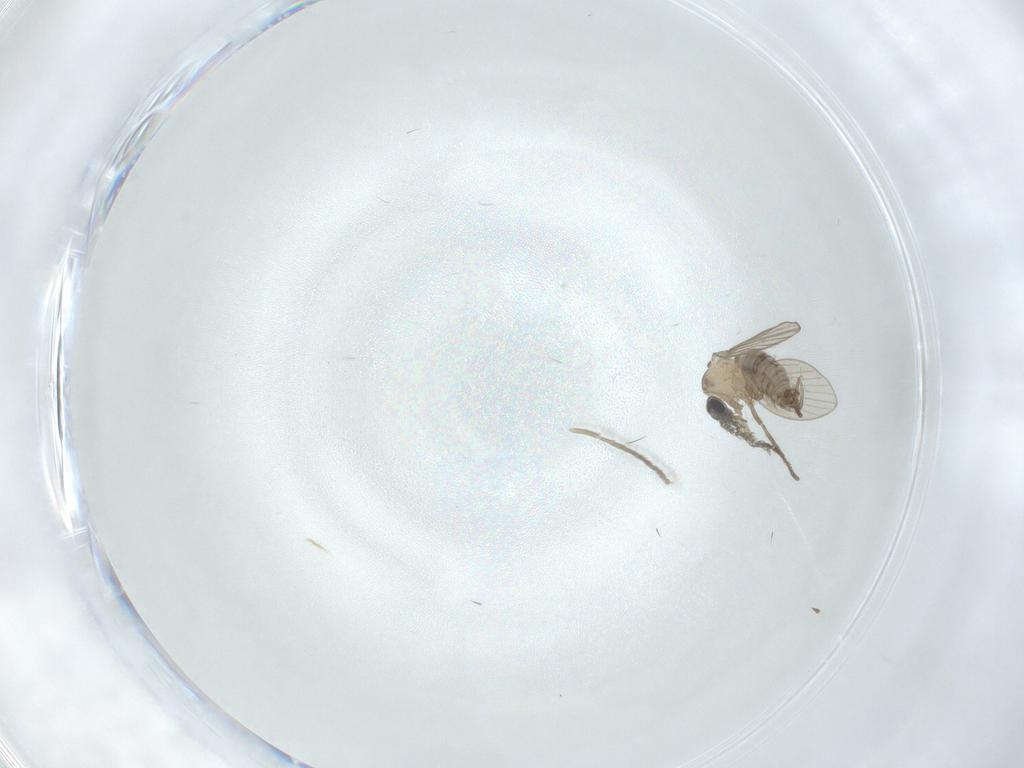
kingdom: Animalia
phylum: Arthropoda
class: Insecta
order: Diptera
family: Psychodidae
